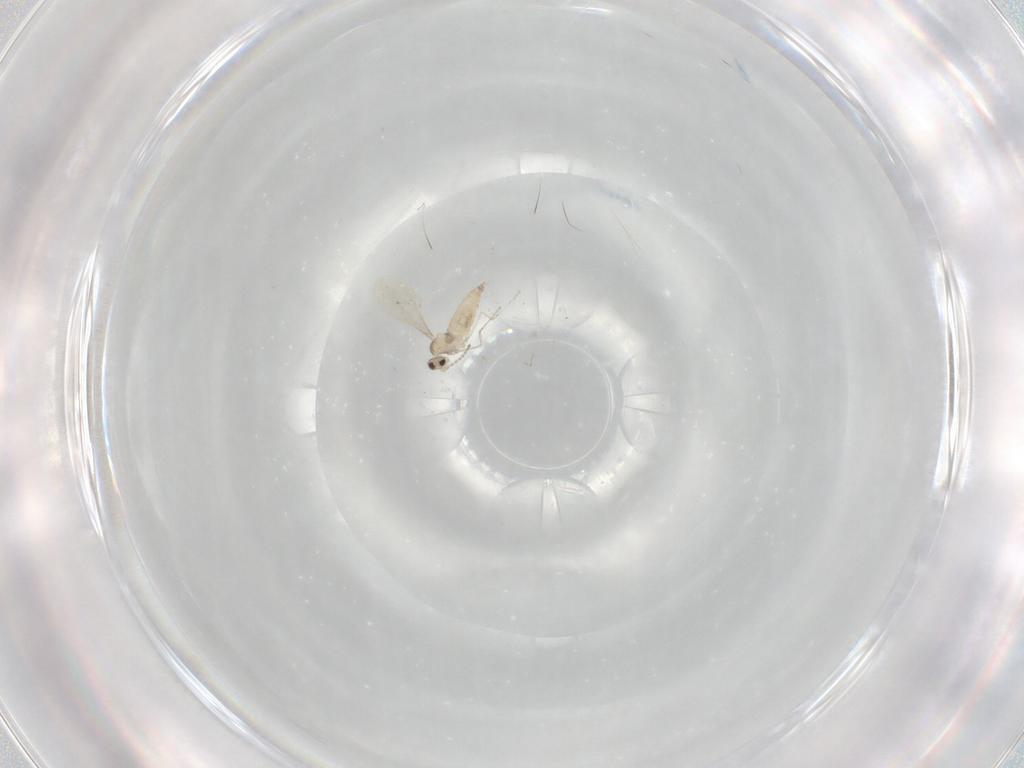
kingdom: Animalia
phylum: Arthropoda
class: Insecta
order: Diptera
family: Cecidomyiidae
